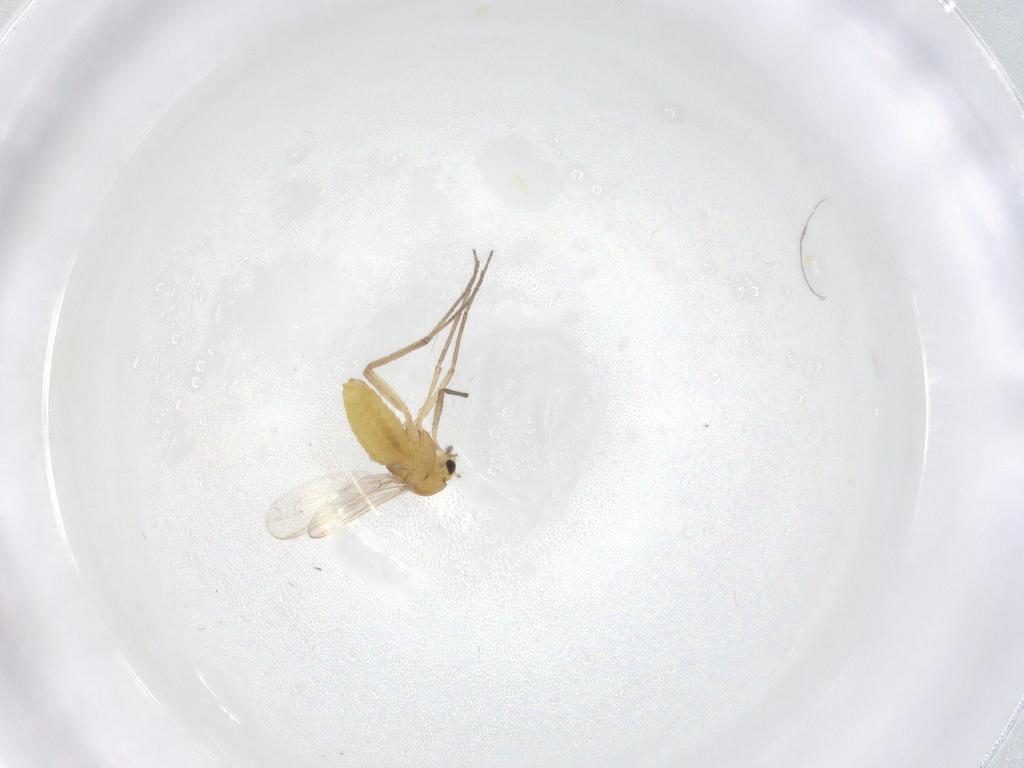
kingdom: Animalia
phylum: Arthropoda
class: Insecta
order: Diptera
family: Chironomidae
